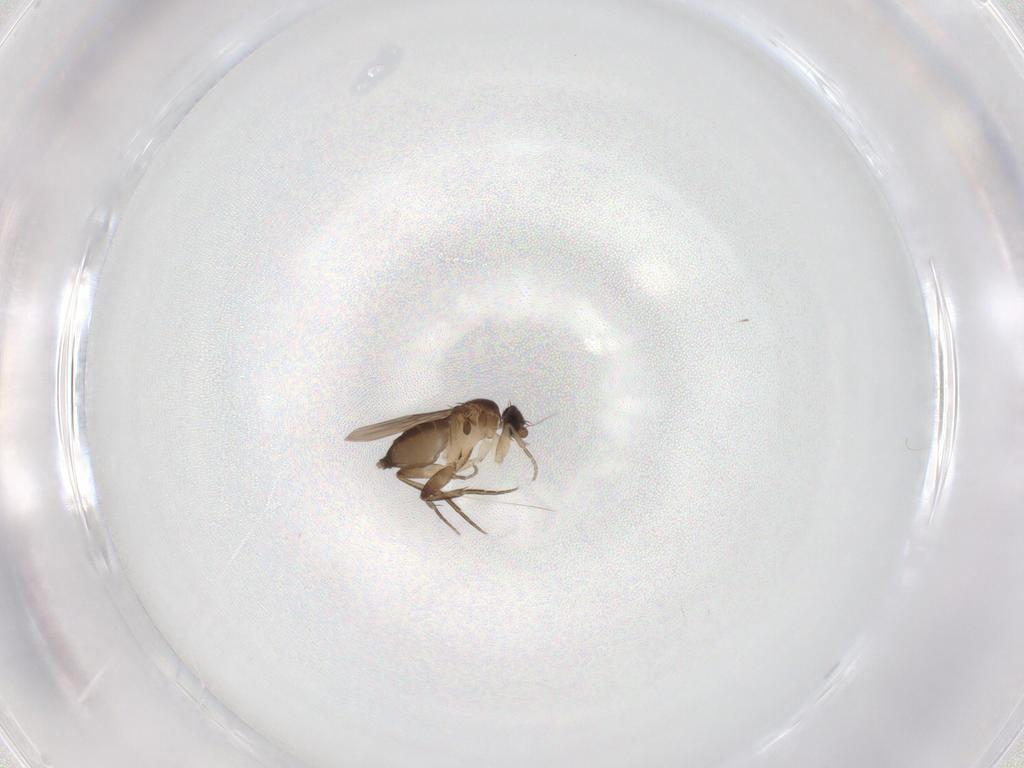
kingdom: Animalia
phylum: Arthropoda
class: Insecta
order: Diptera
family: Phoridae
